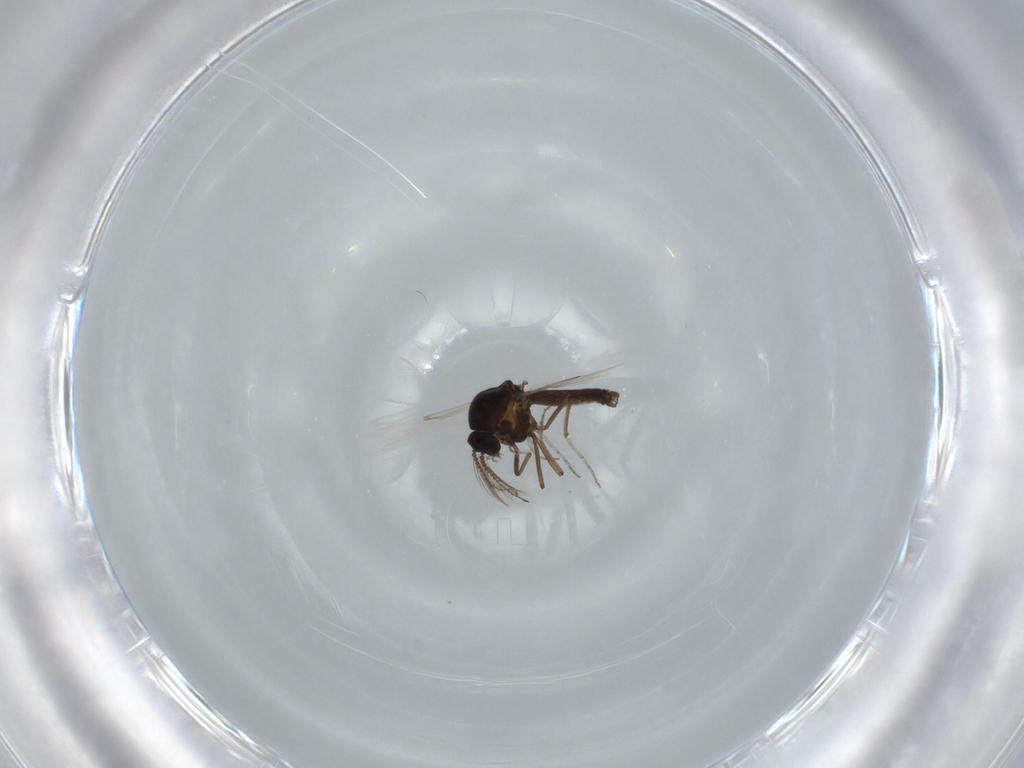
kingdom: Animalia
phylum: Arthropoda
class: Insecta
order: Diptera
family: Ceratopogonidae
